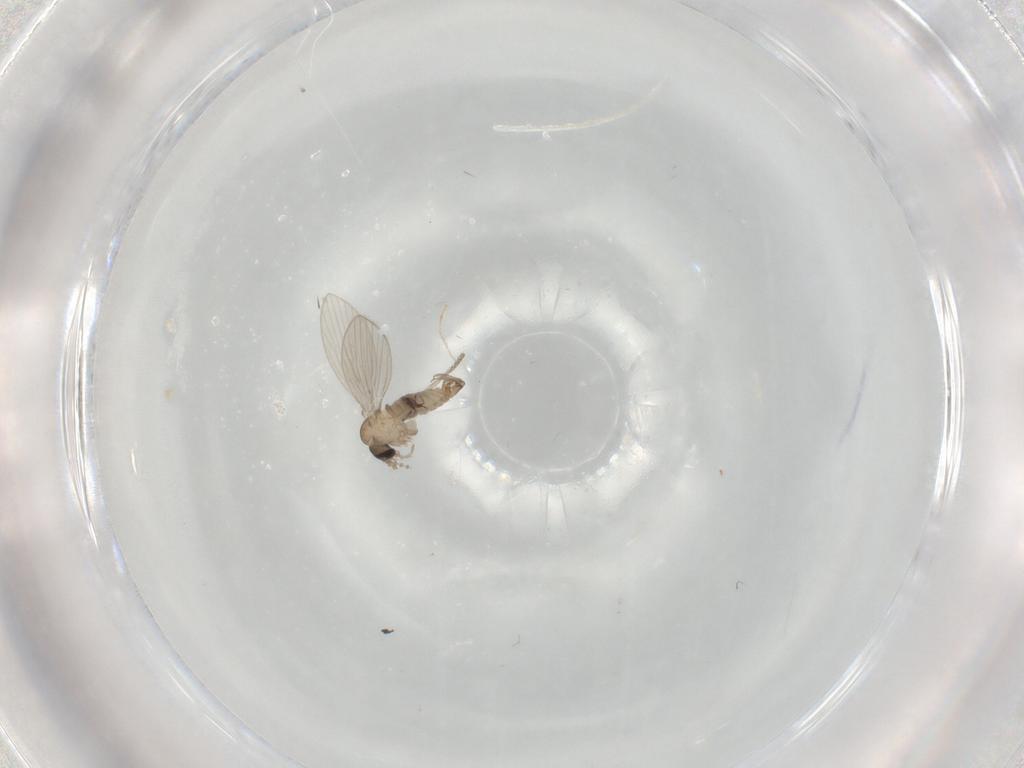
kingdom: Animalia
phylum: Arthropoda
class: Insecta
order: Diptera
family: Psychodidae
